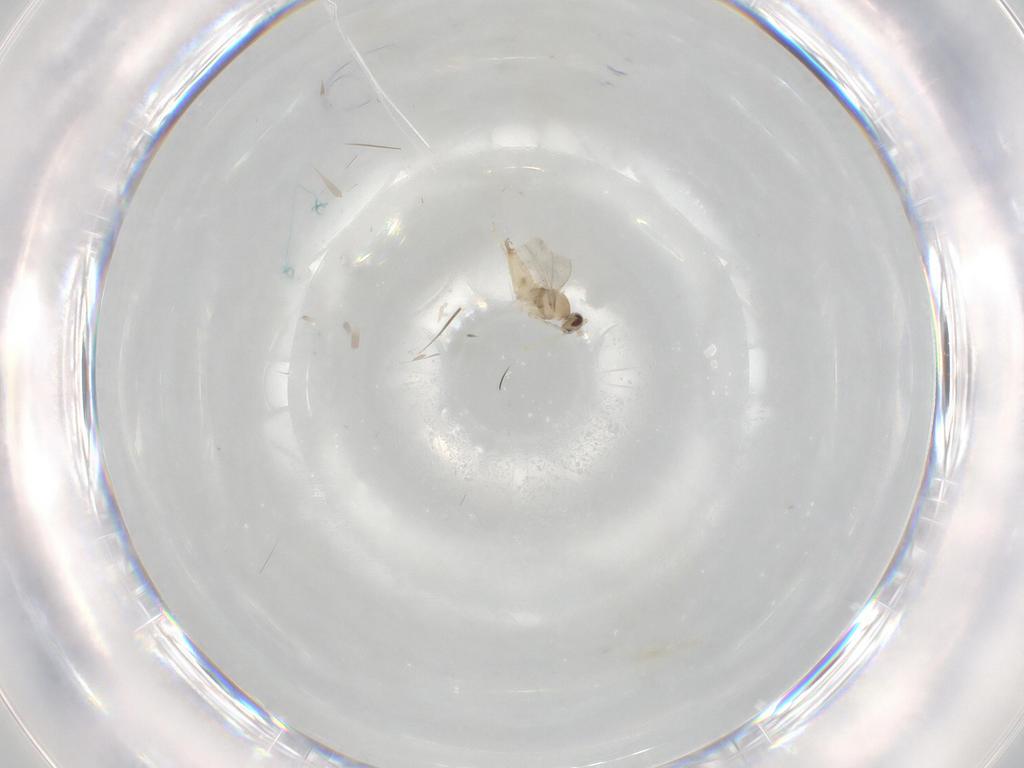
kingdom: Animalia
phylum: Arthropoda
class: Insecta
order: Diptera
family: Cecidomyiidae
